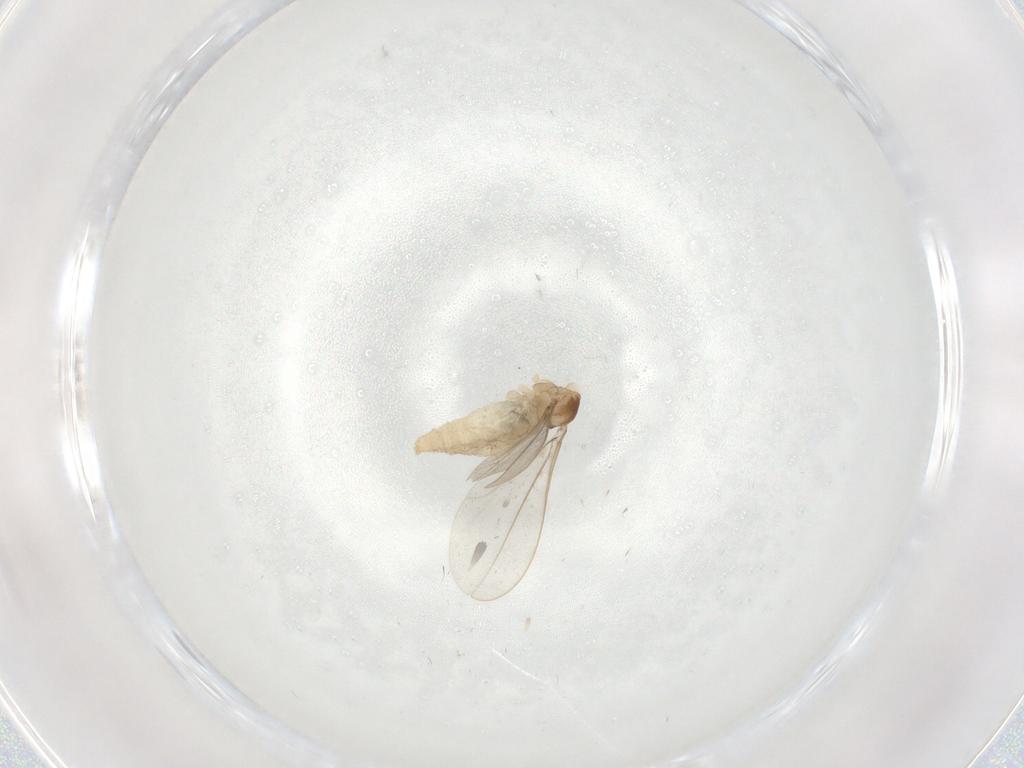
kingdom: Animalia
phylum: Arthropoda
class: Insecta
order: Diptera
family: Cecidomyiidae
